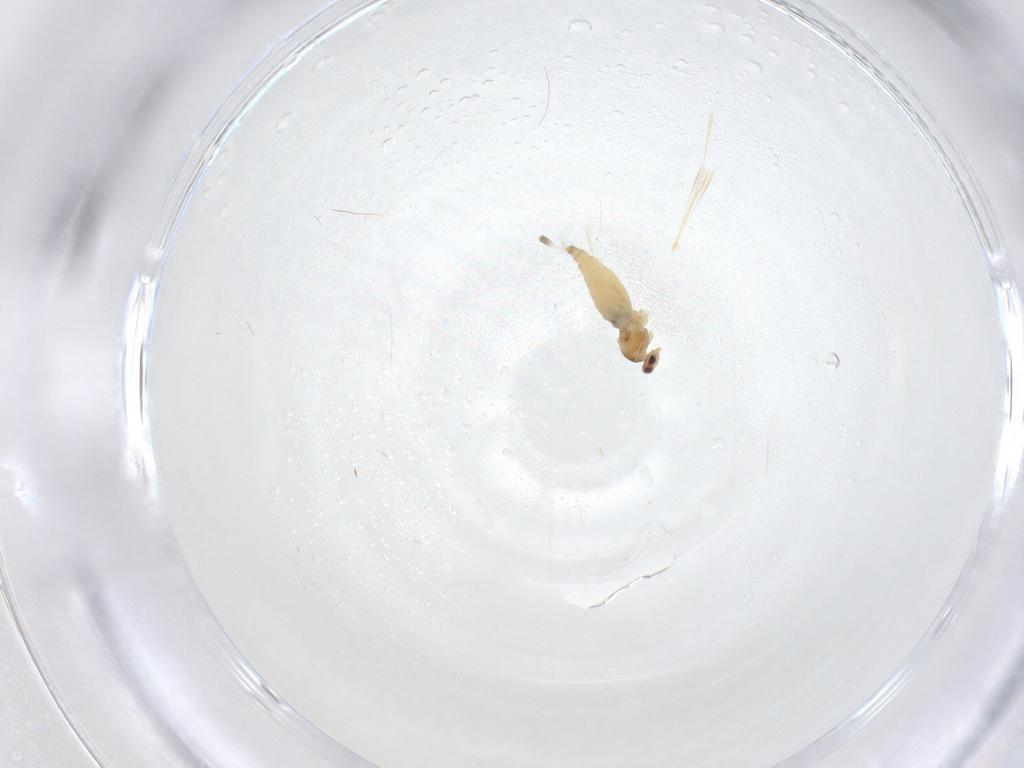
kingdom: Animalia
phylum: Arthropoda
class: Insecta
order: Diptera
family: Cecidomyiidae
